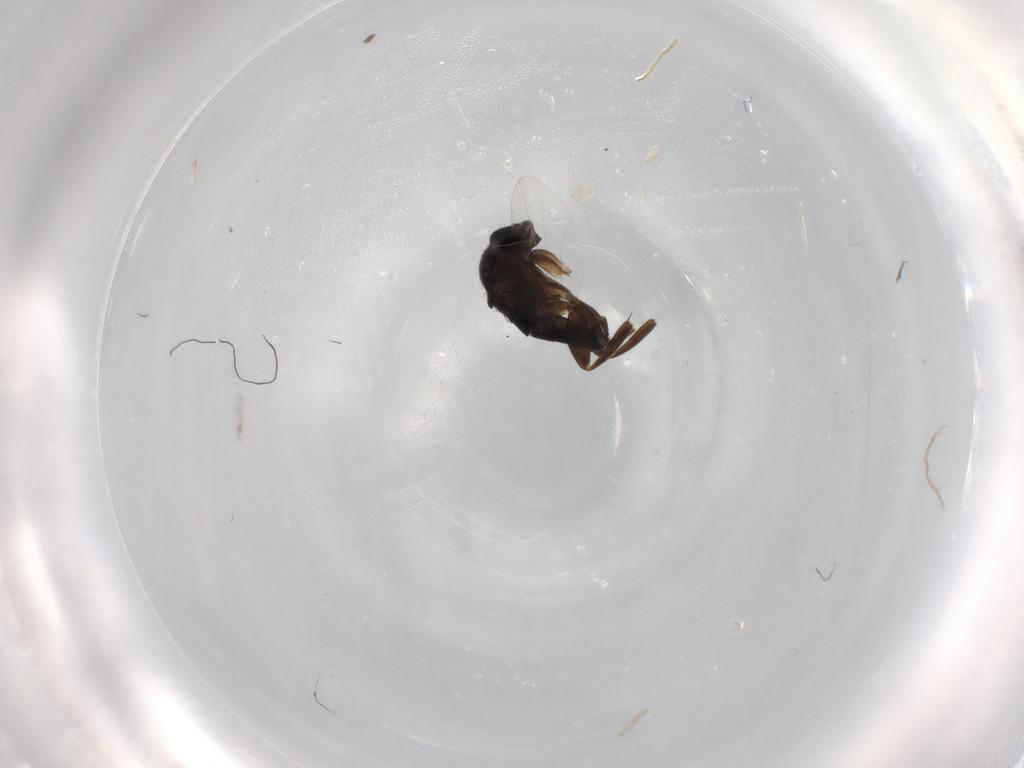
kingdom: Animalia
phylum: Arthropoda
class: Insecta
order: Diptera
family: Phoridae
